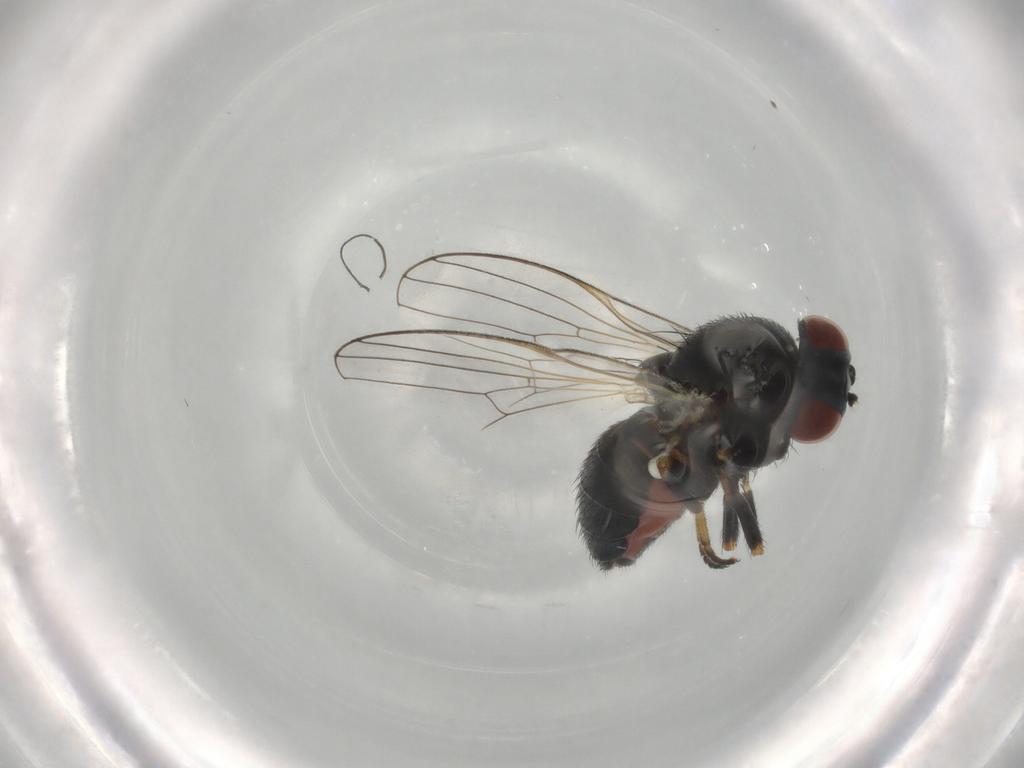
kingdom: Animalia
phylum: Arthropoda
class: Insecta
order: Diptera
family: Chamaemyiidae
